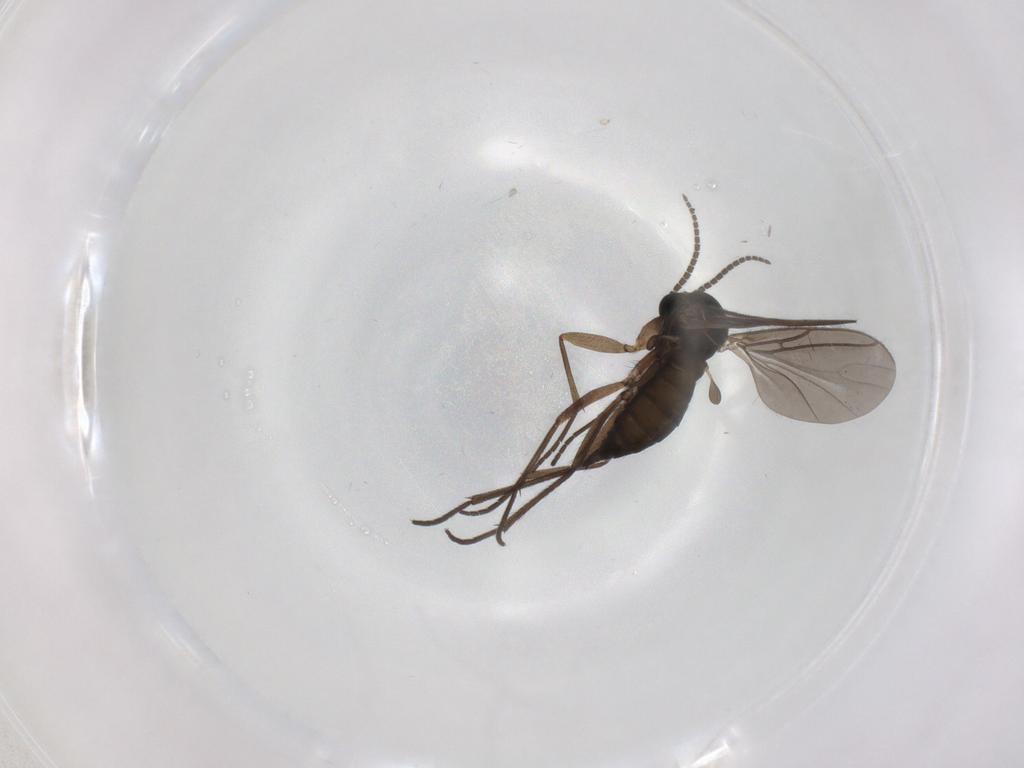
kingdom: Animalia
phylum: Arthropoda
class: Insecta
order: Diptera
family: Sciaridae
